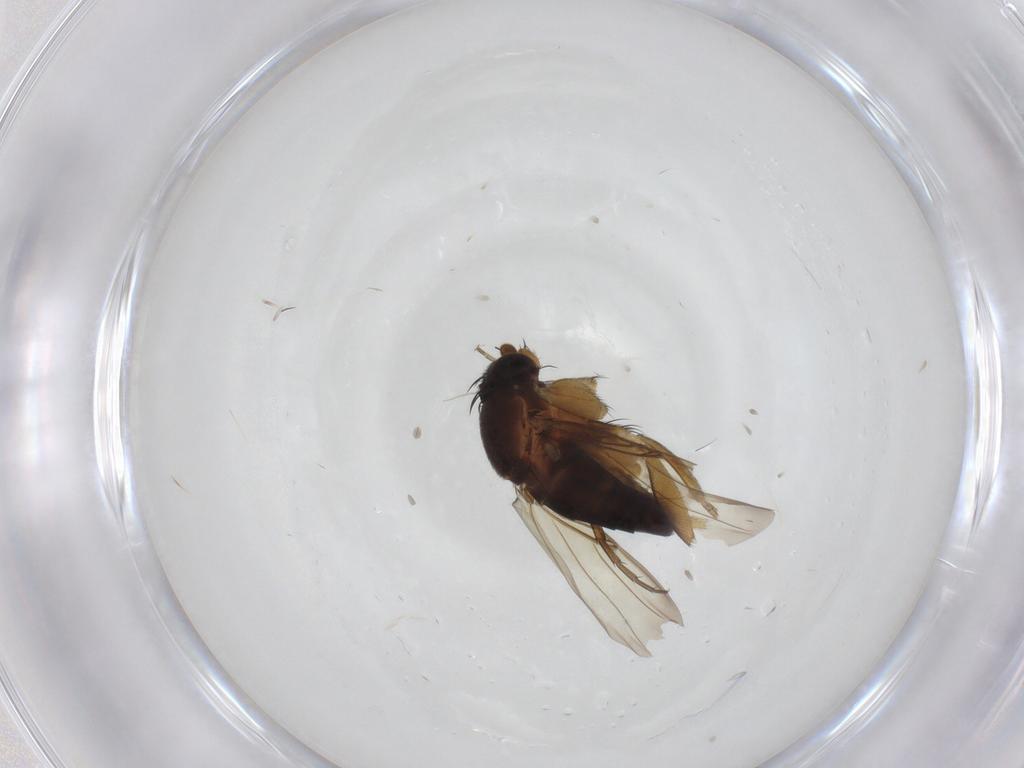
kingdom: Animalia
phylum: Arthropoda
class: Insecta
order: Diptera
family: Phoridae
